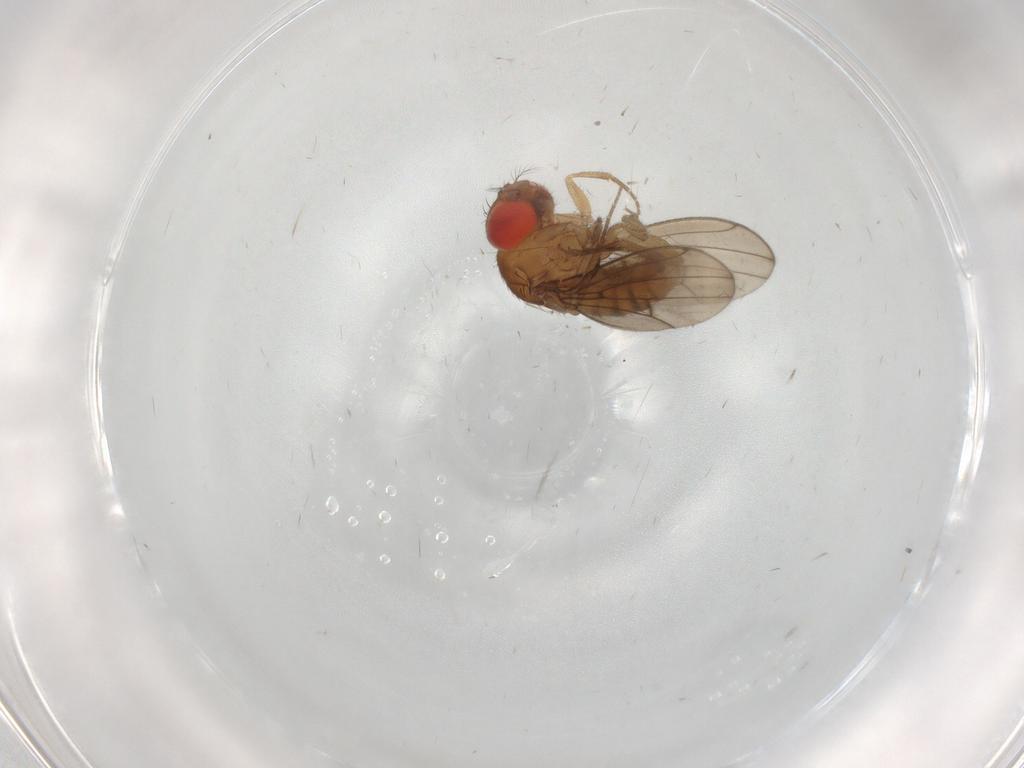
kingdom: Animalia
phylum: Arthropoda
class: Insecta
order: Diptera
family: Drosophilidae
